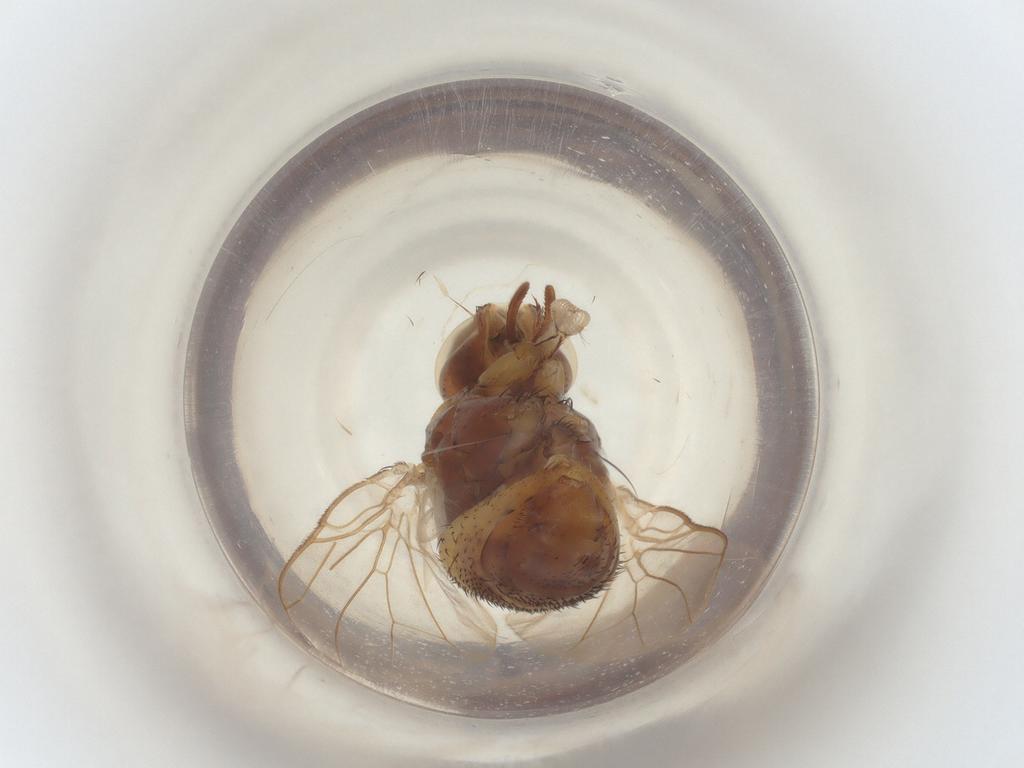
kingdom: Animalia
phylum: Arthropoda
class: Insecta
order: Diptera
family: Muscidae
